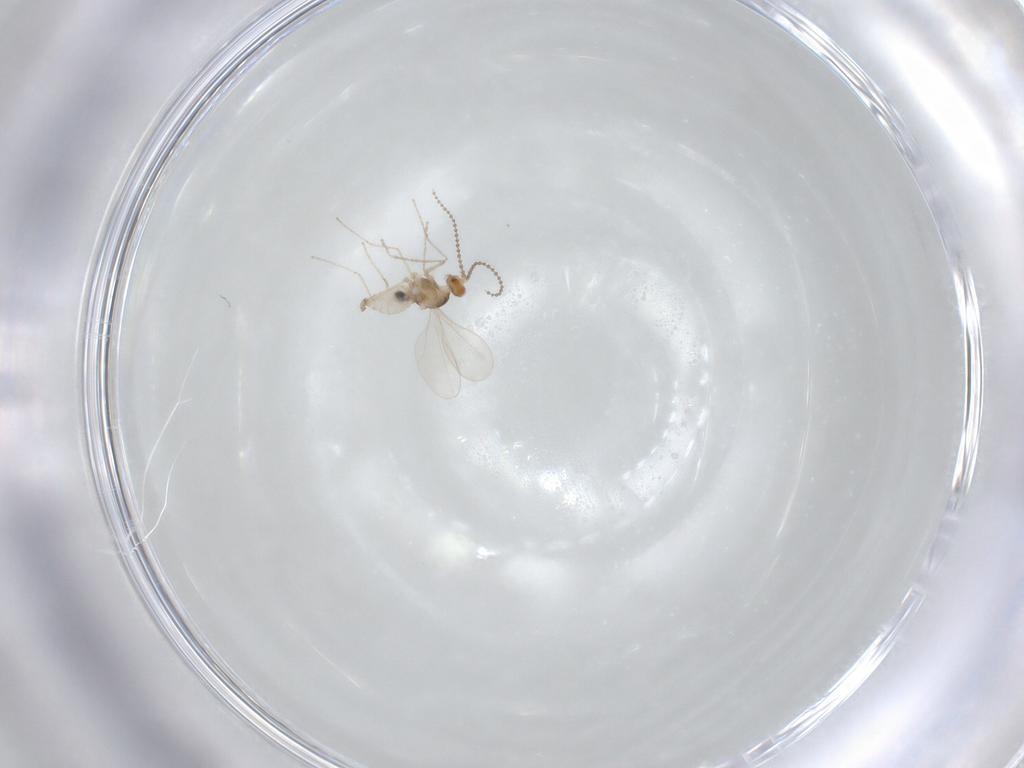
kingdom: Animalia
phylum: Arthropoda
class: Insecta
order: Diptera
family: Cecidomyiidae
